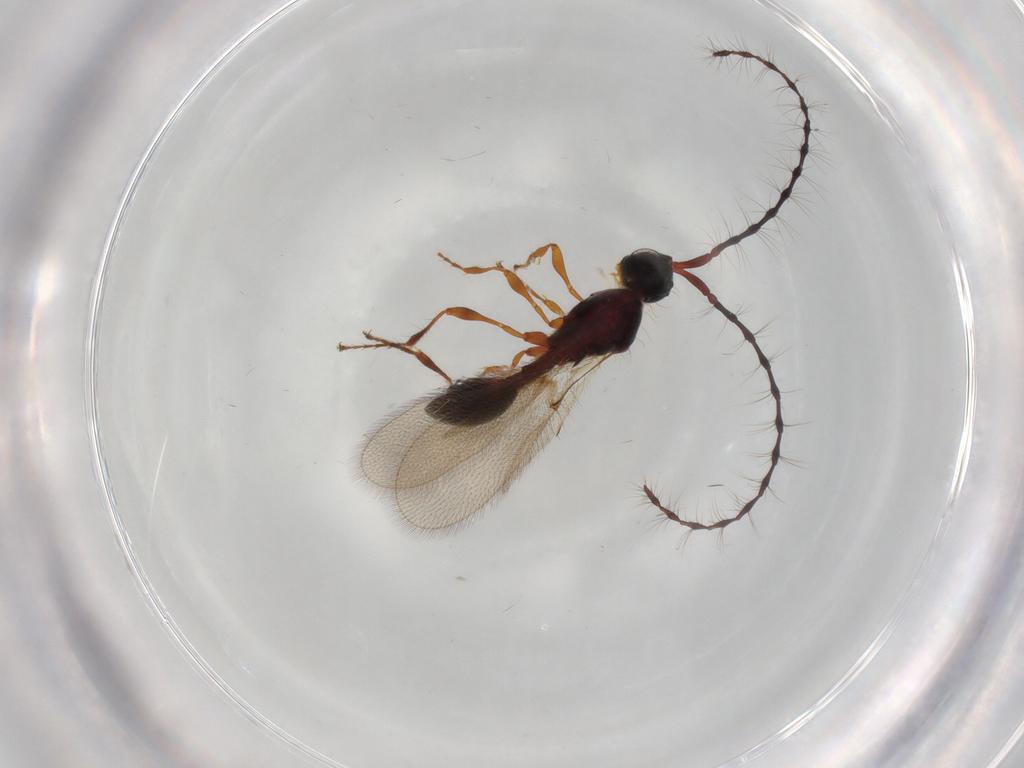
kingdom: Animalia
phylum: Arthropoda
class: Insecta
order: Hymenoptera
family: Diapriidae
